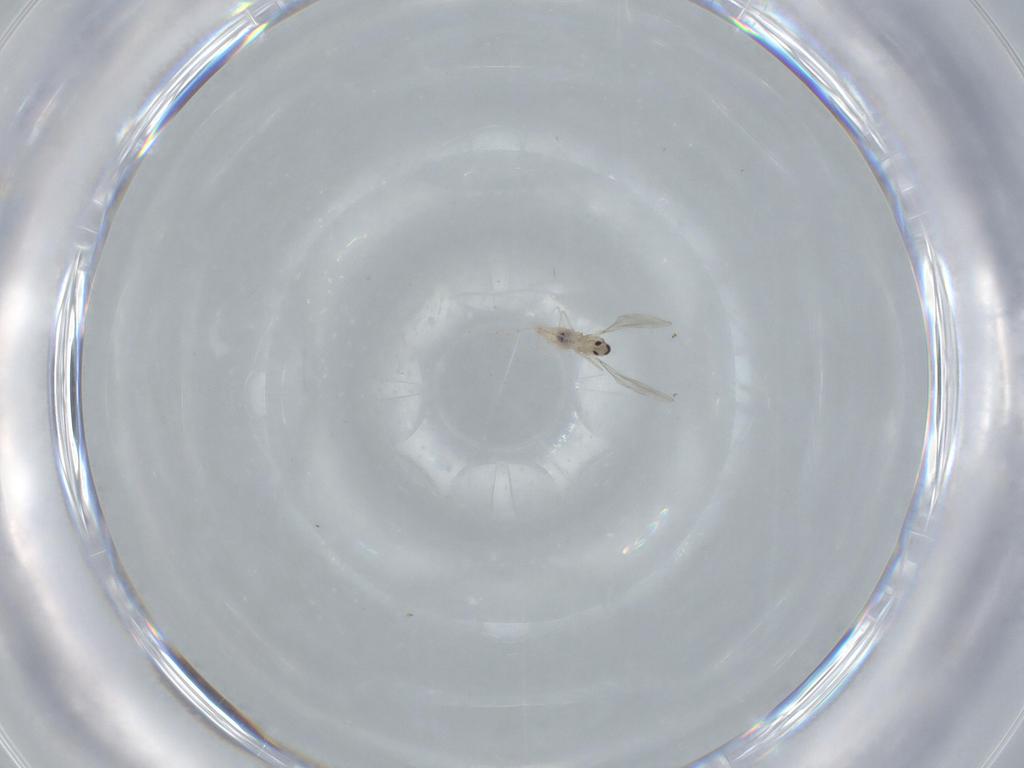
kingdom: Animalia
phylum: Arthropoda
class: Insecta
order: Diptera
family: Cecidomyiidae
